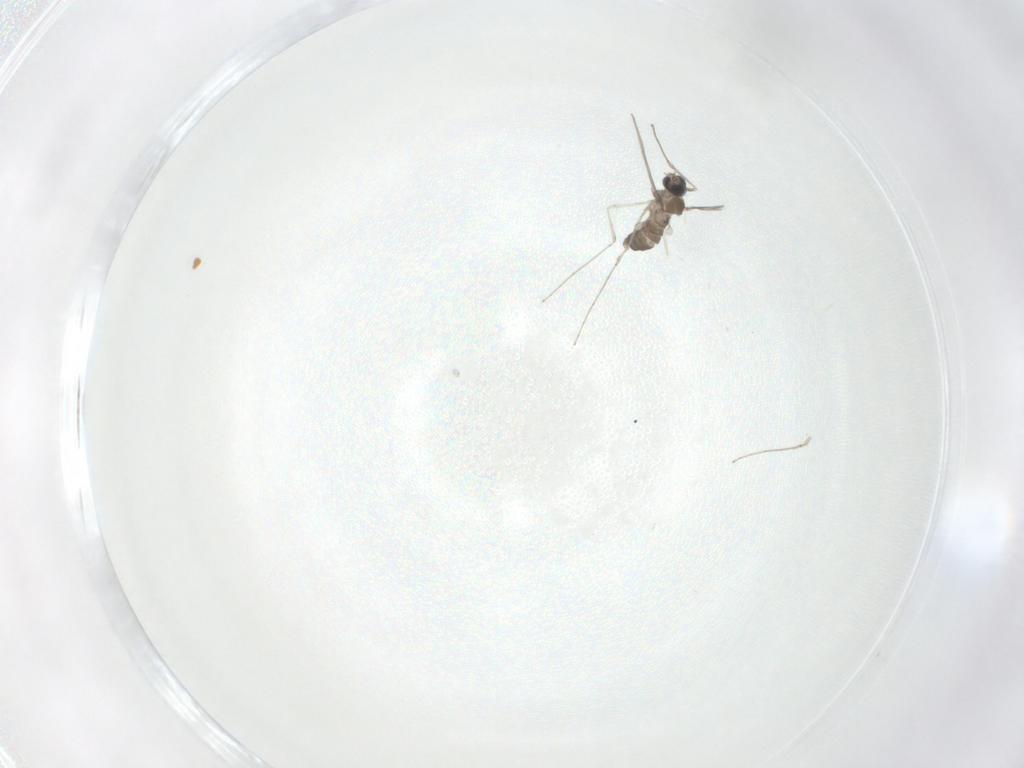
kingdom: Animalia
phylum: Arthropoda
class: Insecta
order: Diptera
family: Cecidomyiidae
